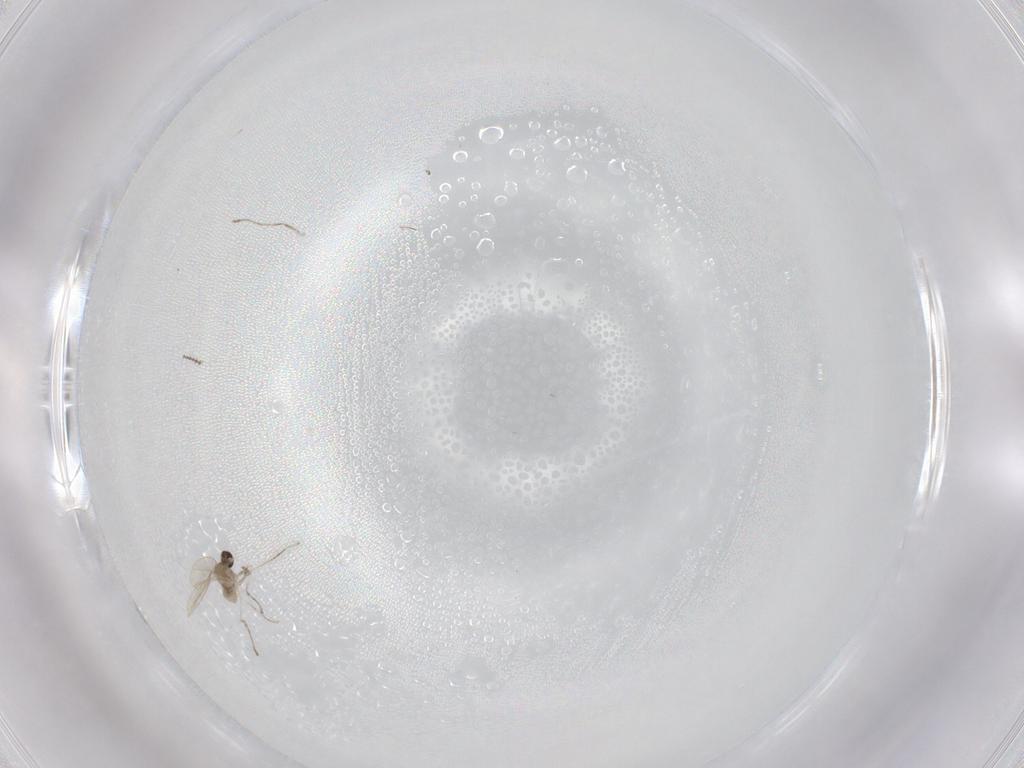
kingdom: Animalia
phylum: Arthropoda
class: Insecta
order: Diptera
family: Cecidomyiidae
